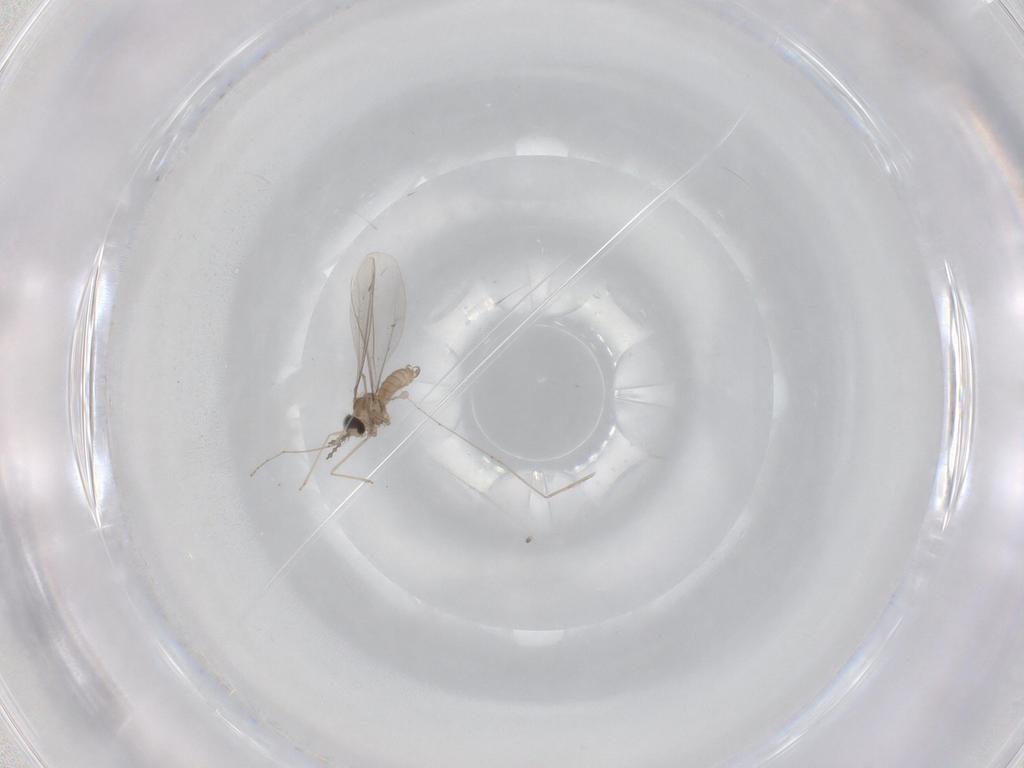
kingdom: Animalia
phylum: Arthropoda
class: Insecta
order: Diptera
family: Cecidomyiidae
